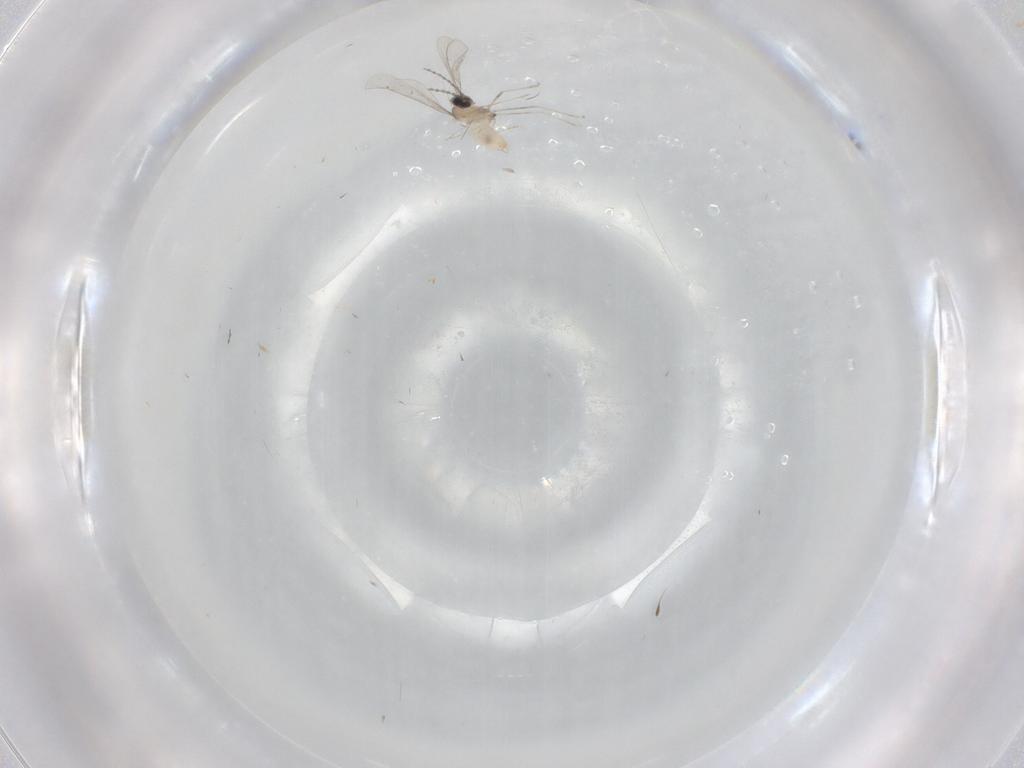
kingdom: Animalia
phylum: Arthropoda
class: Insecta
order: Diptera
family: Cecidomyiidae
